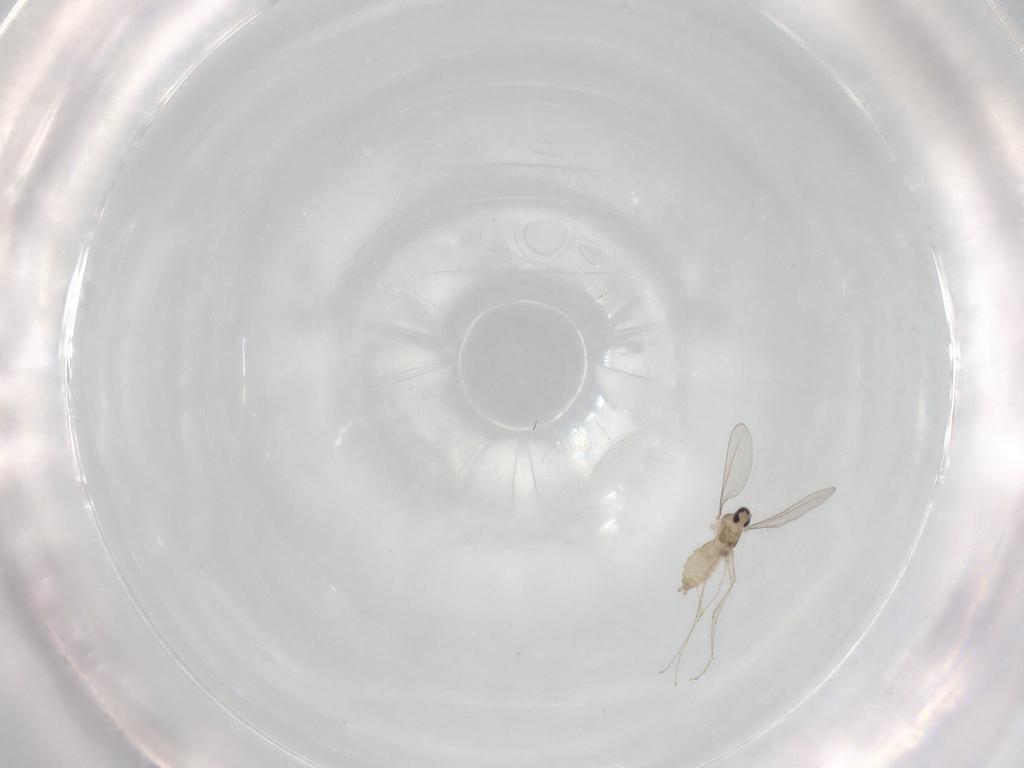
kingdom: Animalia
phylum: Arthropoda
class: Insecta
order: Diptera
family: Cecidomyiidae
